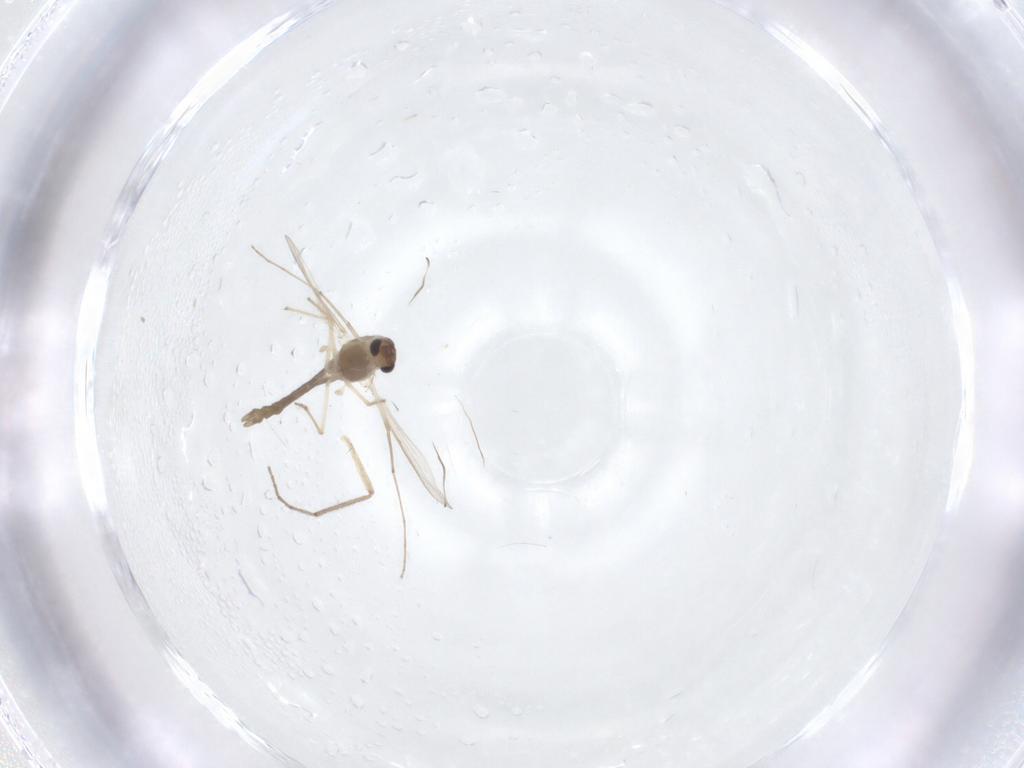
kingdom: Animalia
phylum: Arthropoda
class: Insecta
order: Diptera
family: Chironomidae
